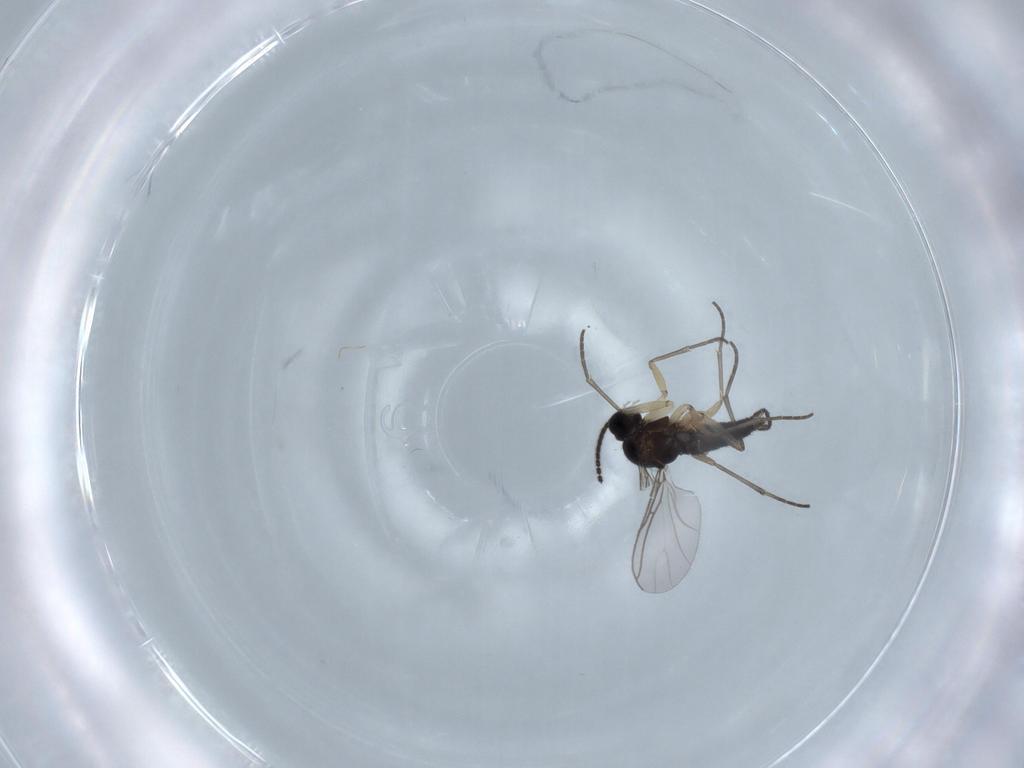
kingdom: Animalia
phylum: Arthropoda
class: Insecta
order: Diptera
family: Sciaridae
